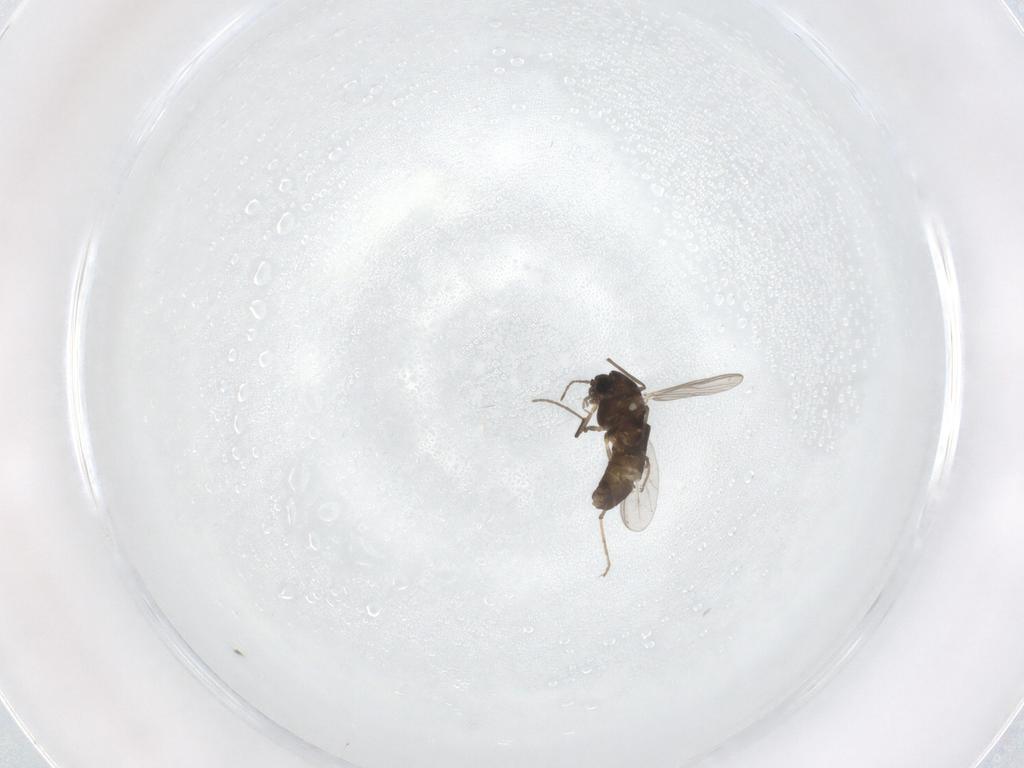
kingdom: Animalia
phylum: Arthropoda
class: Insecta
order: Diptera
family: Chironomidae
